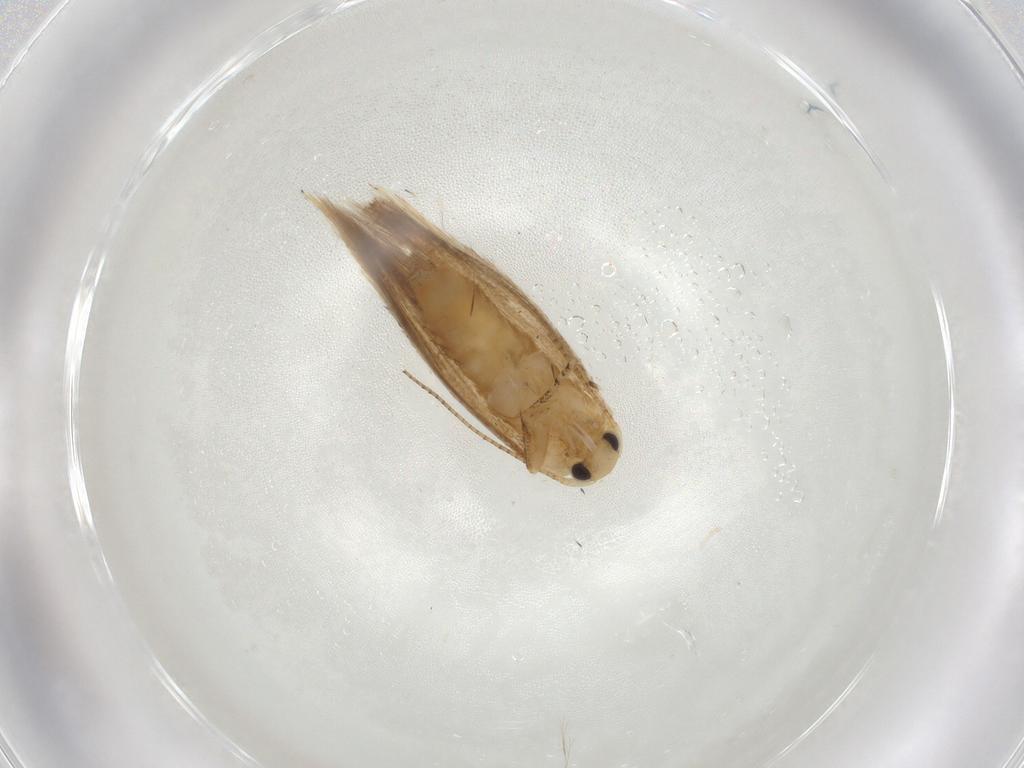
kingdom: Animalia
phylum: Arthropoda
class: Insecta
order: Lepidoptera
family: Bucculatricidae
